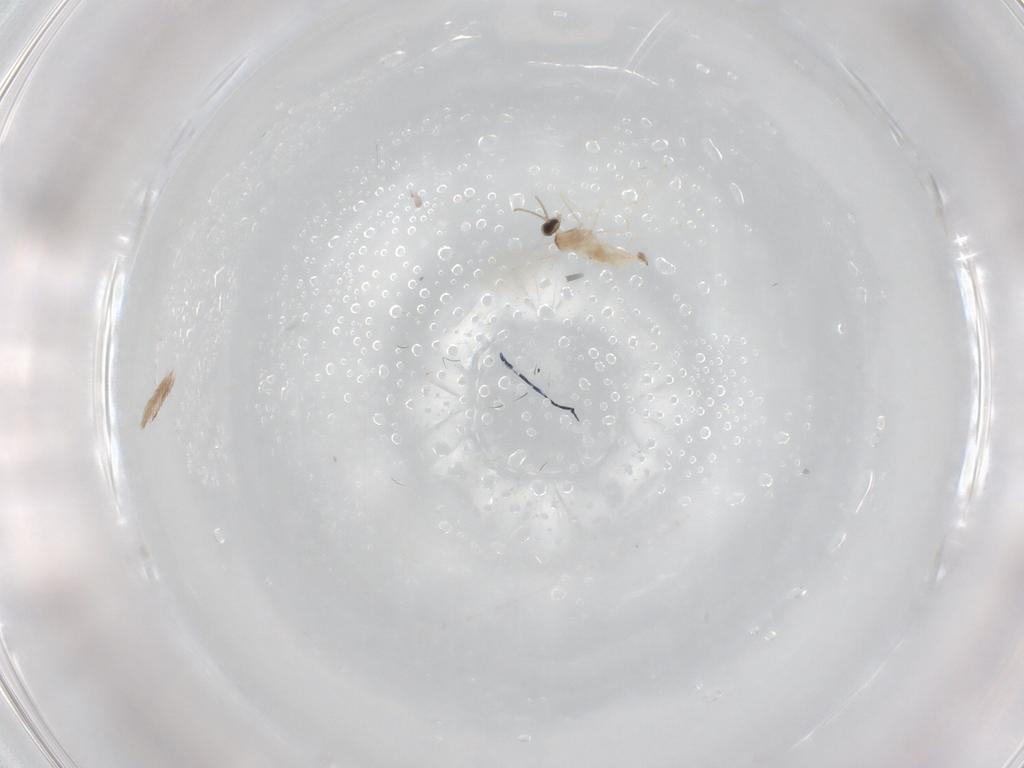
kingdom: Animalia
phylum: Arthropoda
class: Insecta
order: Diptera
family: Cecidomyiidae
